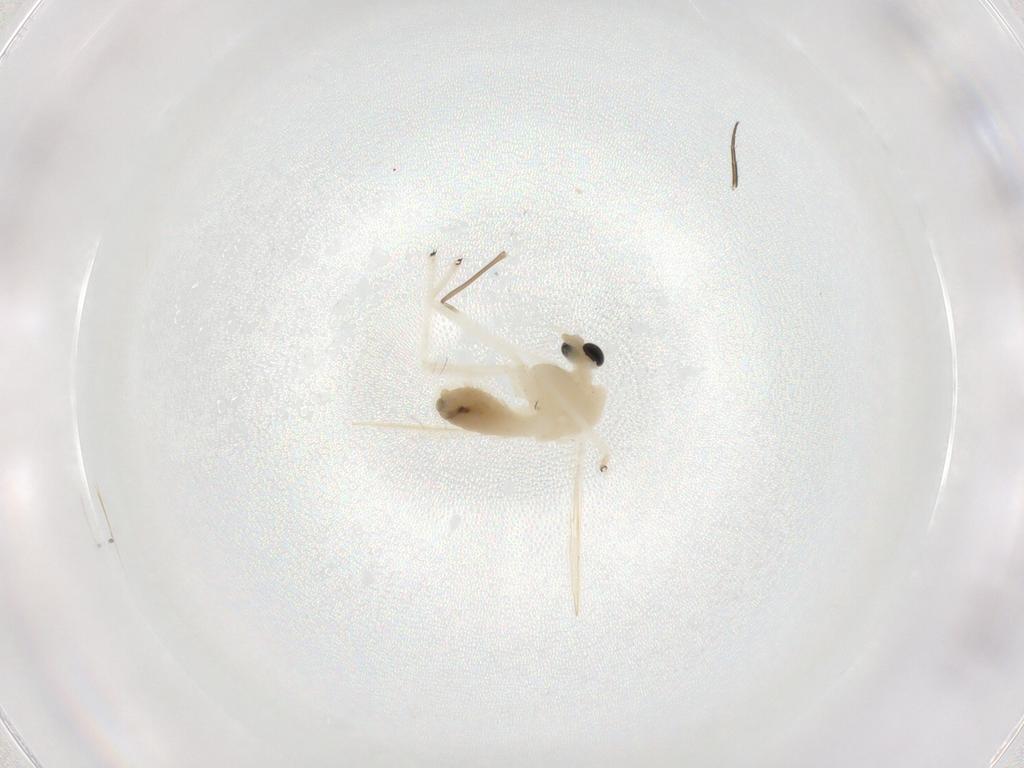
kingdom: Animalia
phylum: Arthropoda
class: Insecta
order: Diptera
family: Chironomidae
